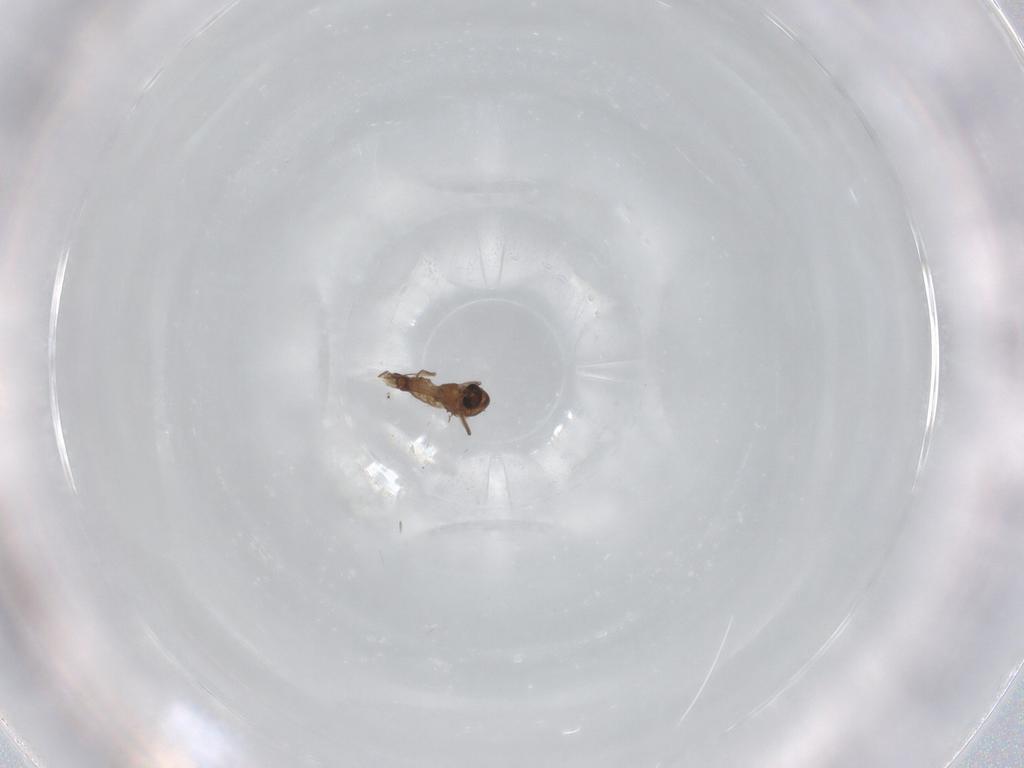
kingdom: Animalia
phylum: Arthropoda
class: Insecta
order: Diptera
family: Chironomidae
